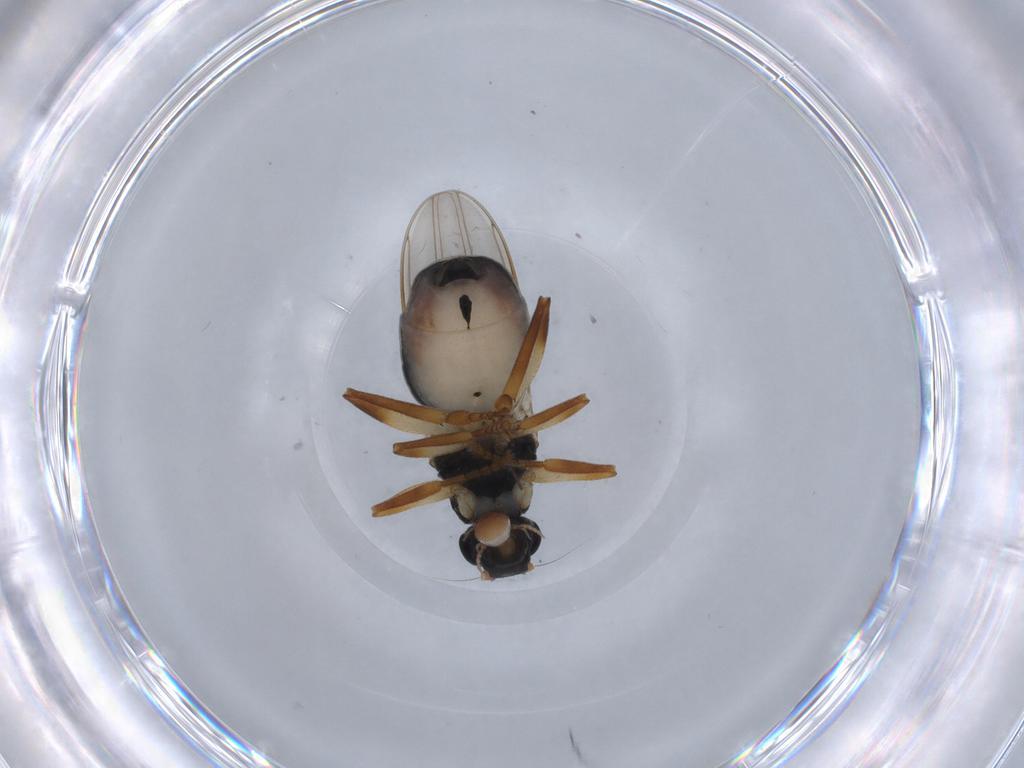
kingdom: Animalia
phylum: Arthropoda
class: Insecta
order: Diptera
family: Sphaeroceridae
